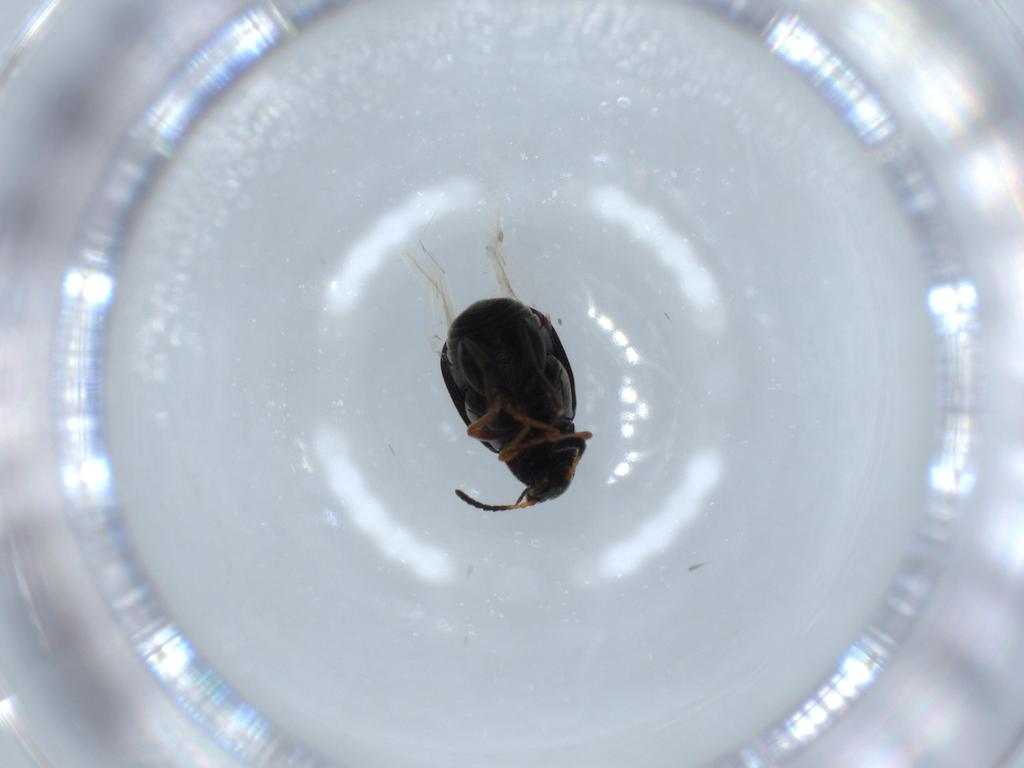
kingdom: Animalia
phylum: Arthropoda
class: Insecta
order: Coleoptera
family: Chrysomelidae
